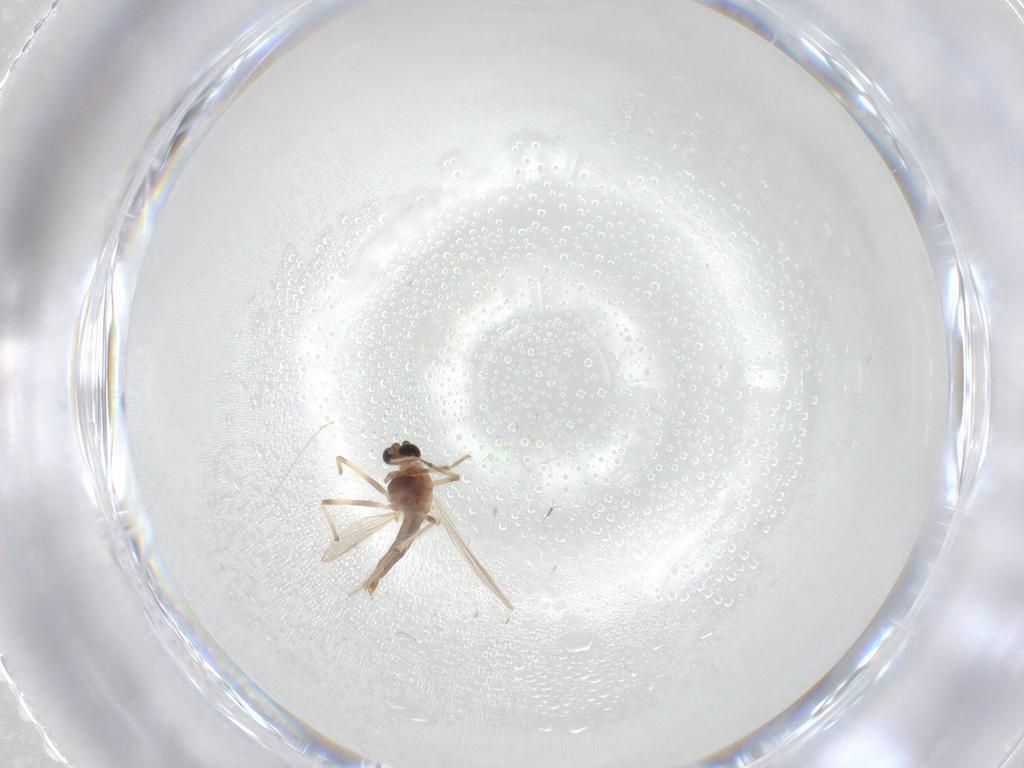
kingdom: Animalia
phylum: Arthropoda
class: Insecta
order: Diptera
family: Chironomidae
